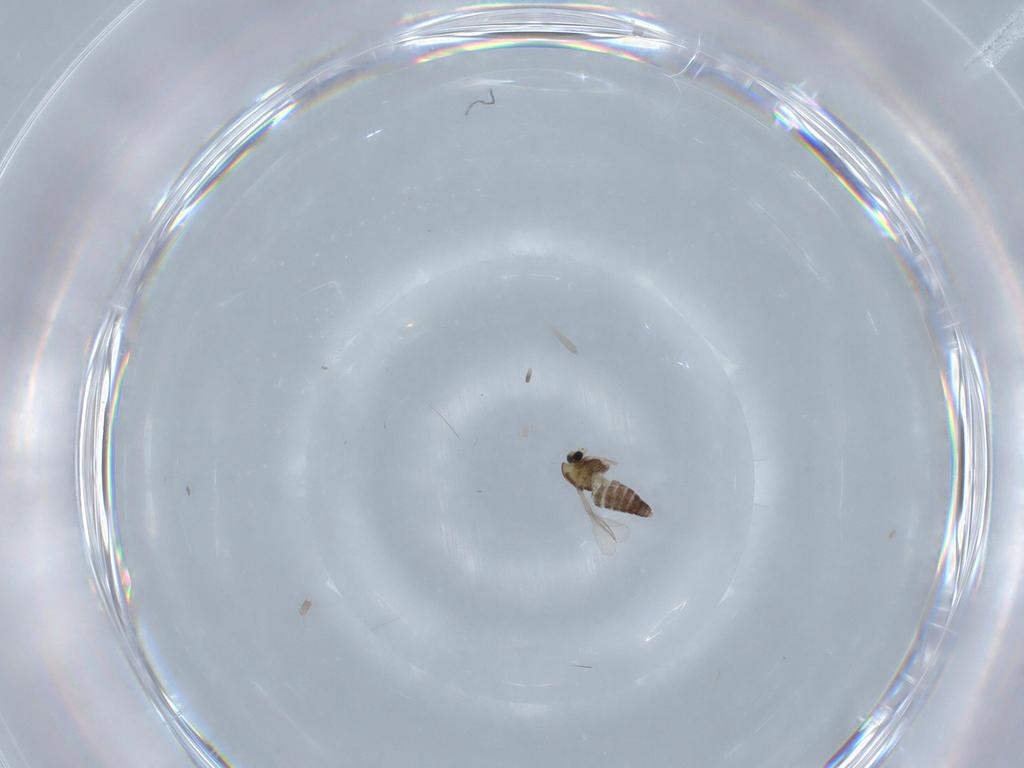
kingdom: Animalia
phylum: Arthropoda
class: Insecta
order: Diptera
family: Chironomidae
